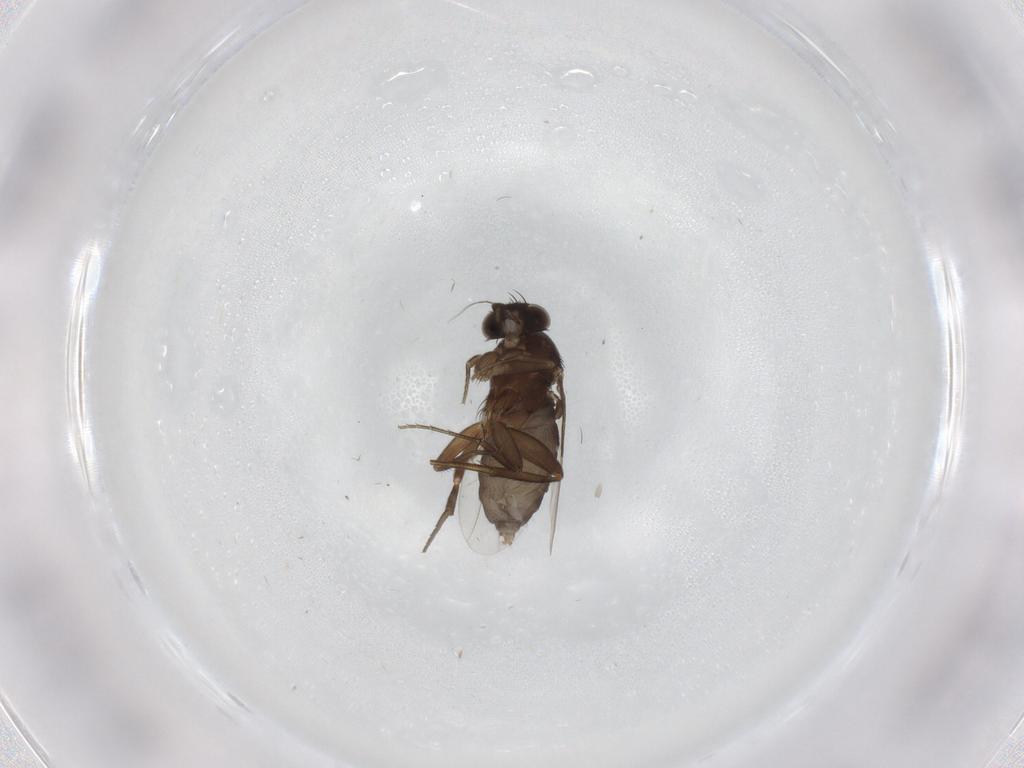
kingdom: Animalia
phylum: Arthropoda
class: Insecta
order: Diptera
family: Phoridae
